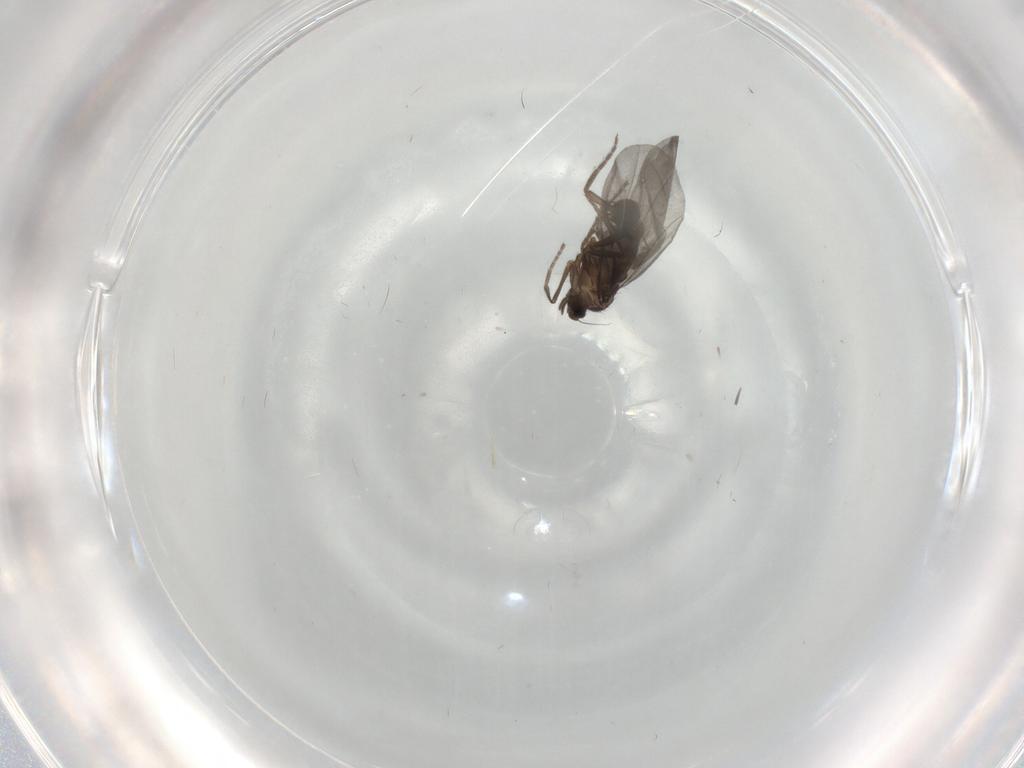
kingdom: Animalia
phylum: Arthropoda
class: Insecta
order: Diptera
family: Phoridae
